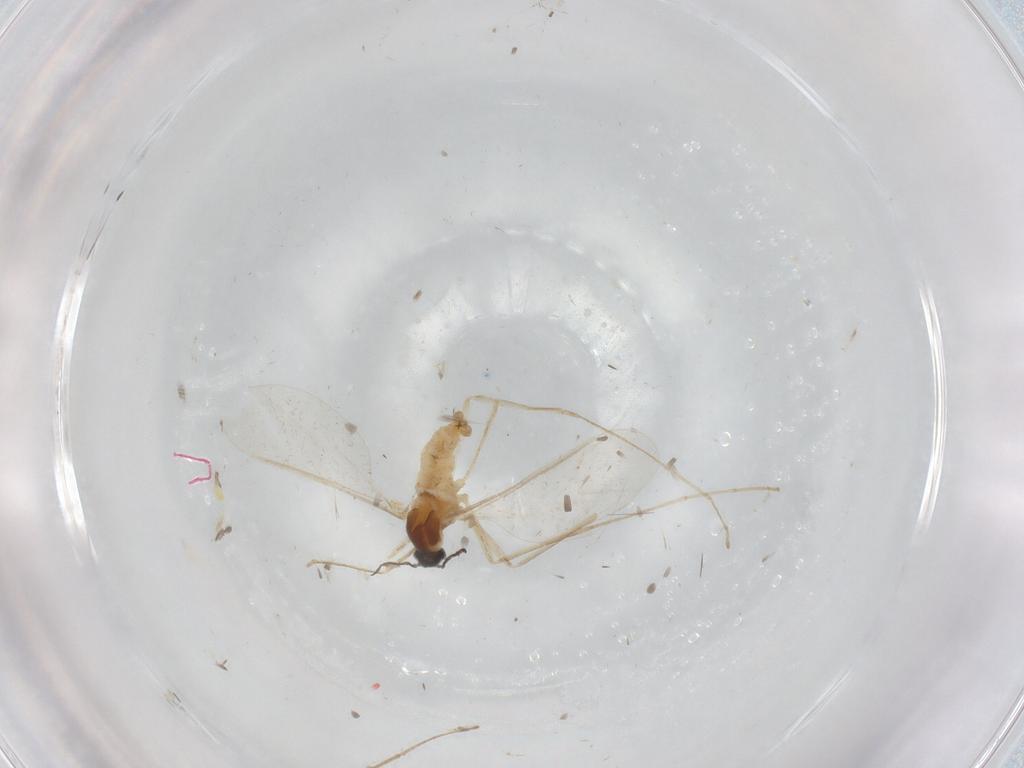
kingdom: Animalia
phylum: Arthropoda
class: Insecta
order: Diptera
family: Cecidomyiidae
